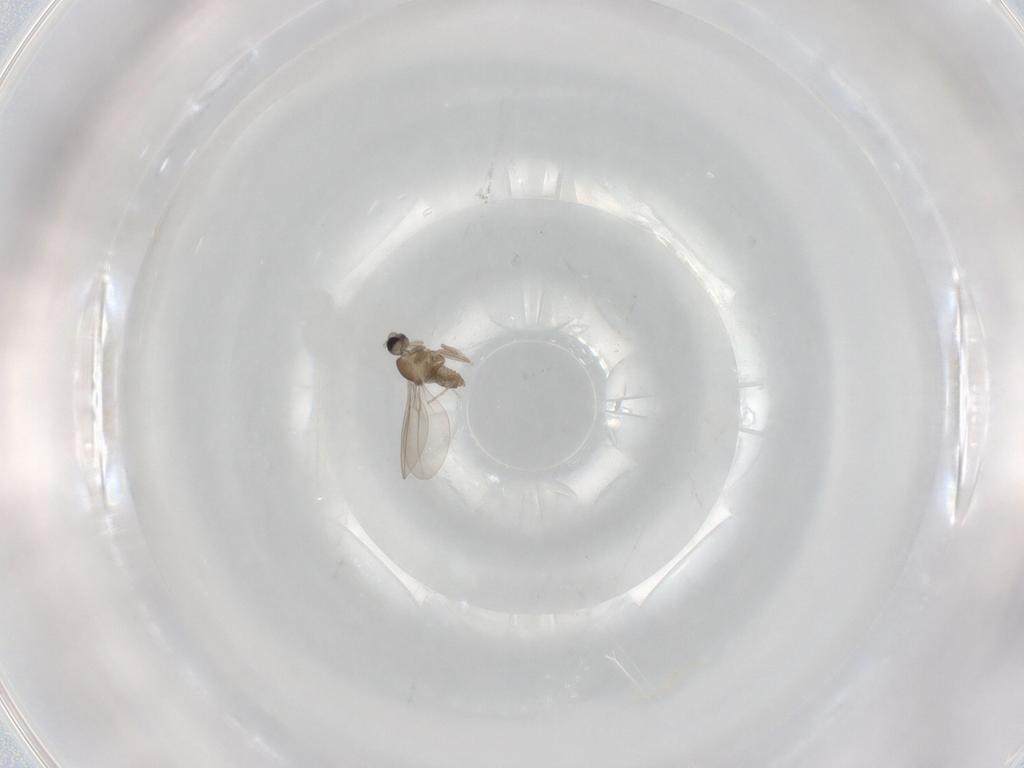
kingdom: Animalia
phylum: Arthropoda
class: Insecta
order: Diptera
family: Cecidomyiidae
